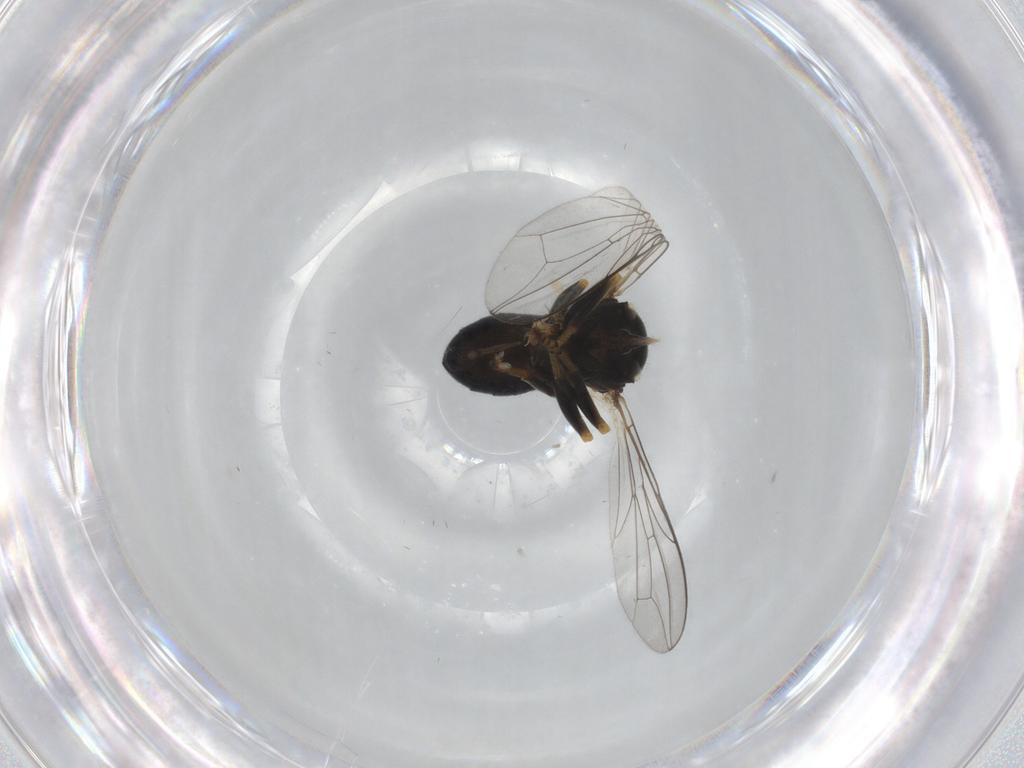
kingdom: Animalia
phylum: Arthropoda
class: Insecta
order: Diptera
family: Pipunculidae
